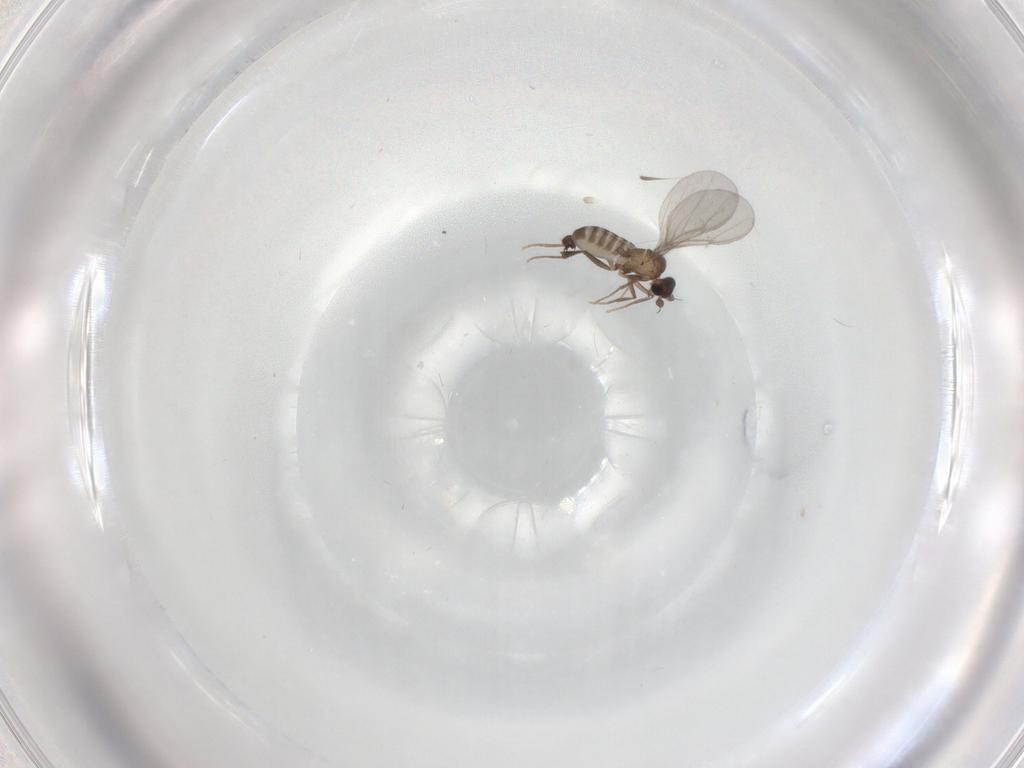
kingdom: Animalia
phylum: Arthropoda
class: Insecta
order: Diptera
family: Phoridae
